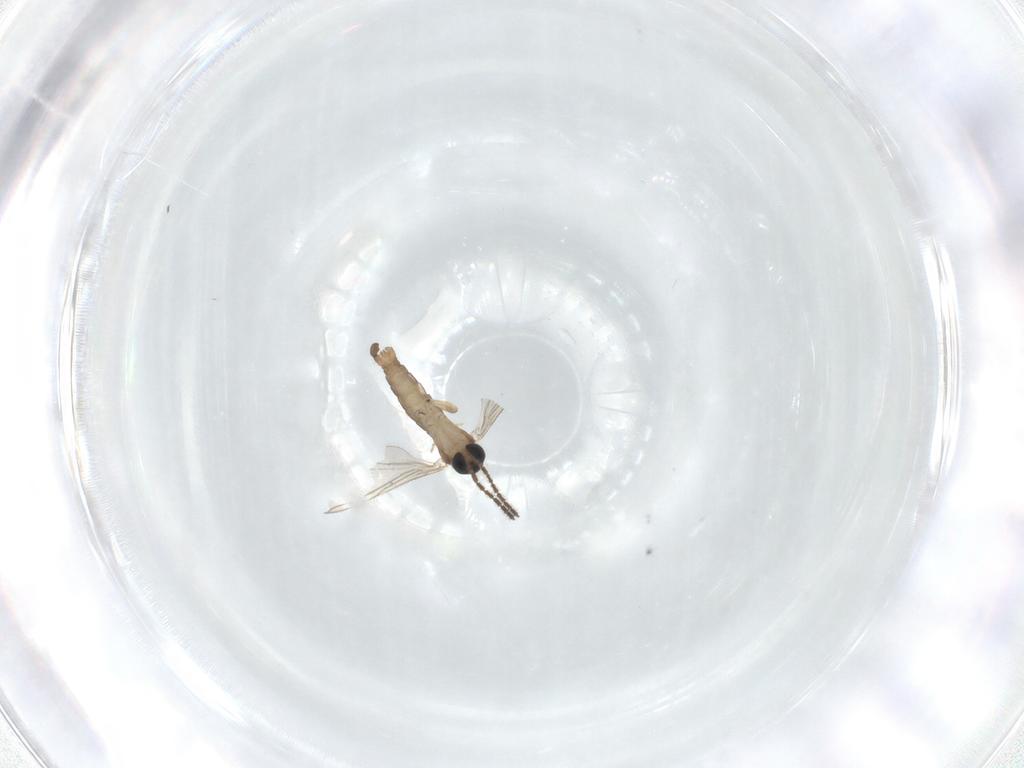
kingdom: Animalia
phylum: Arthropoda
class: Insecta
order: Diptera
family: Sciaridae
